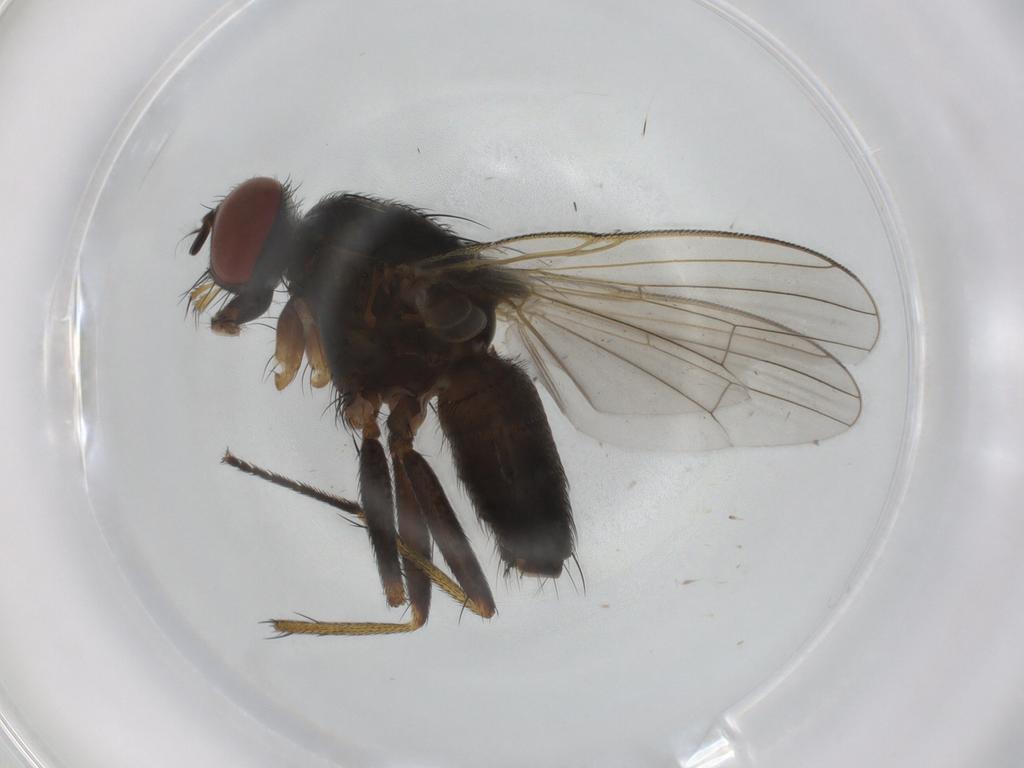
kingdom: Animalia
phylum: Arthropoda
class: Insecta
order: Diptera
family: Muscidae
